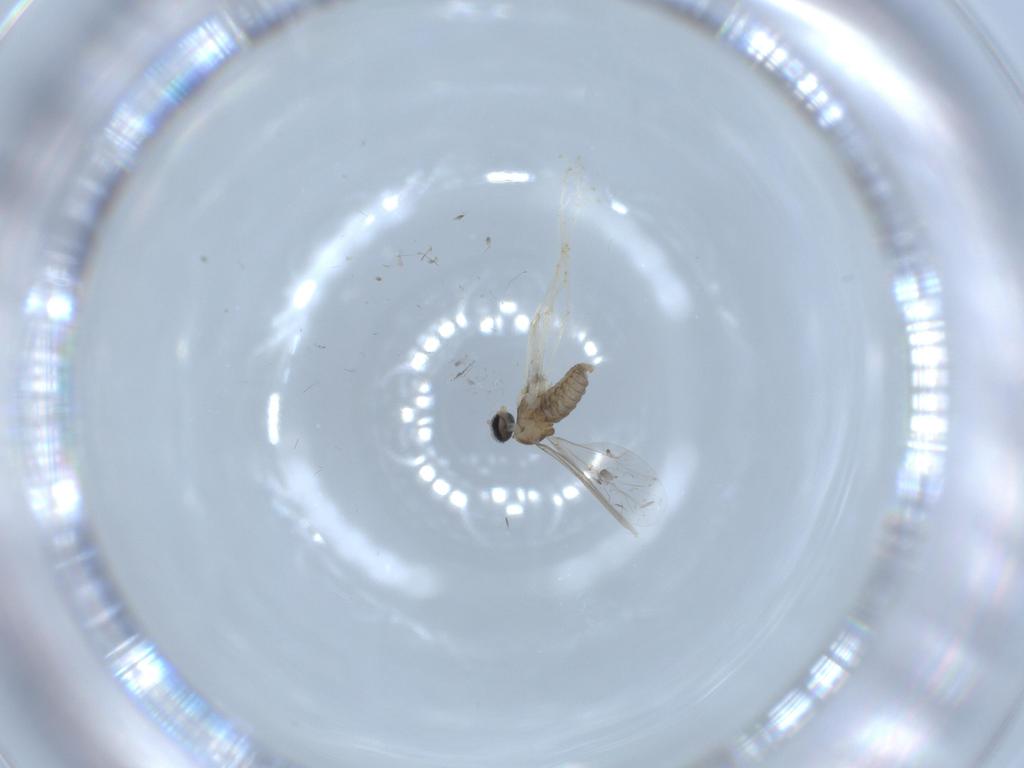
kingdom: Animalia
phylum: Arthropoda
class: Insecta
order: Diptera
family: Cecidomyiidae
